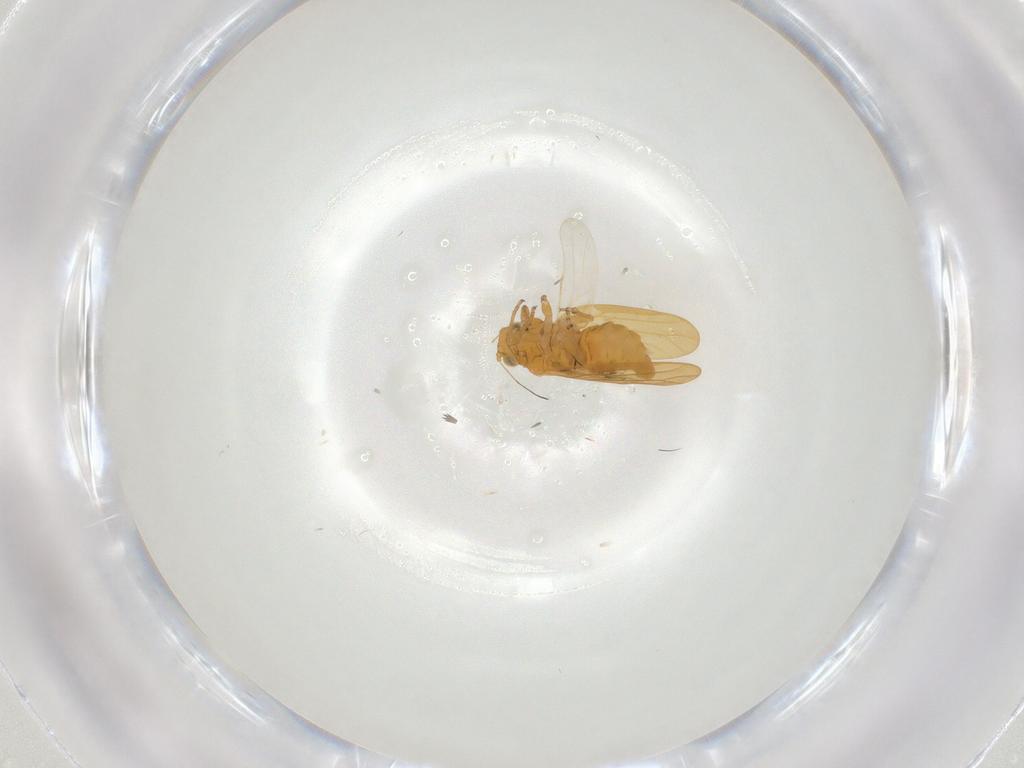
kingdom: Animalia
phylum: Arthropoda
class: Insecta
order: Hemiptera
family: Psylloidea_incertae_sedis
